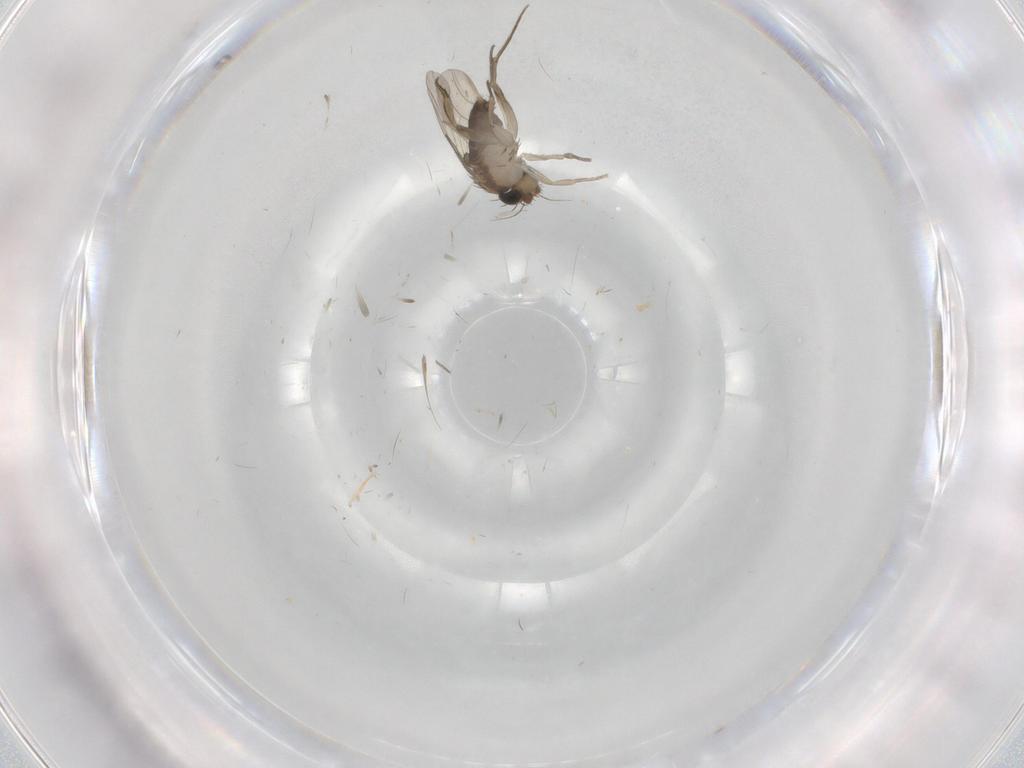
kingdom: Animalia
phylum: Arthropoda
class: Insecta
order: Diptera
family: Phoridae
